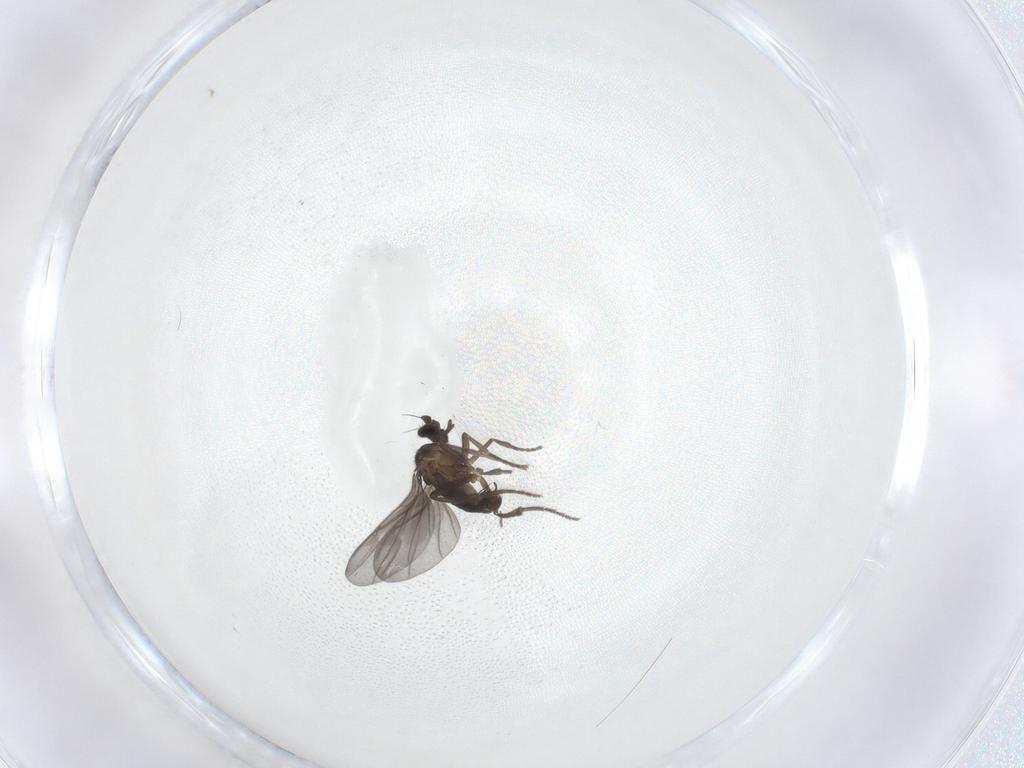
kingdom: Animalia
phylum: Arthropoda
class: Insecta
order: Diptera
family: Phoridae
